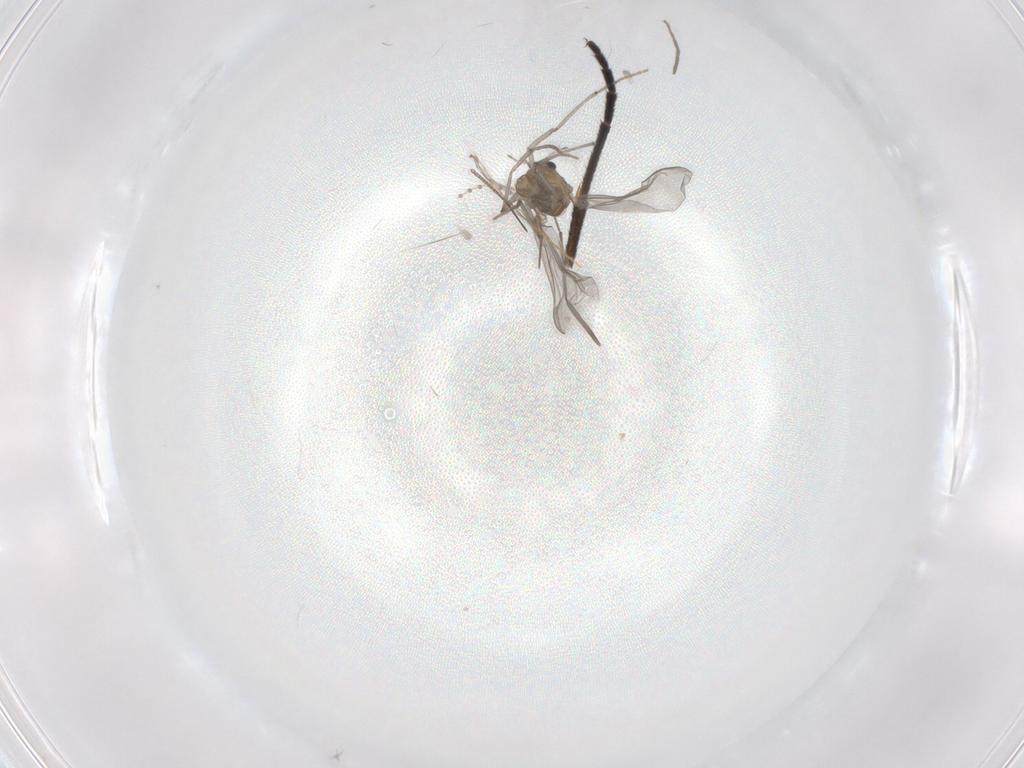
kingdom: Animalia
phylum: Arthropoda
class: Insecta
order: Diptera
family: Chironomidae
